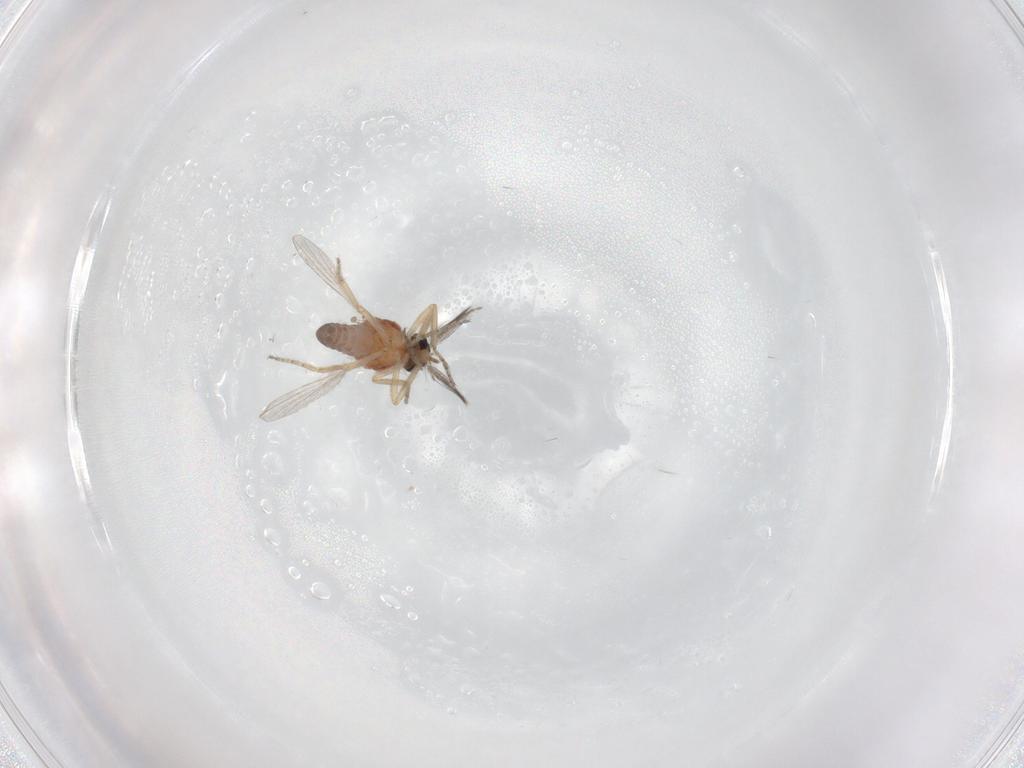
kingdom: Animalia
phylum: Arthropoda
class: Insecta
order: Diptera
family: Ceratopogonidae
